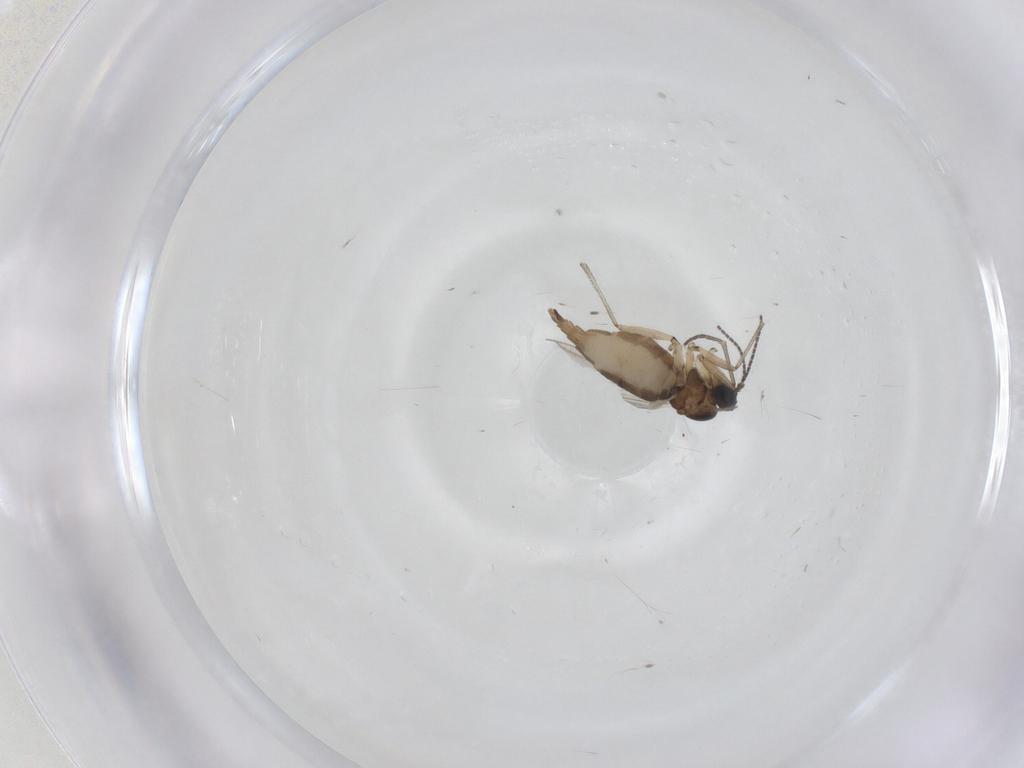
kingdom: Animalia
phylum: Arthropoda
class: Insecta
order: Diptera
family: Sciaridae
